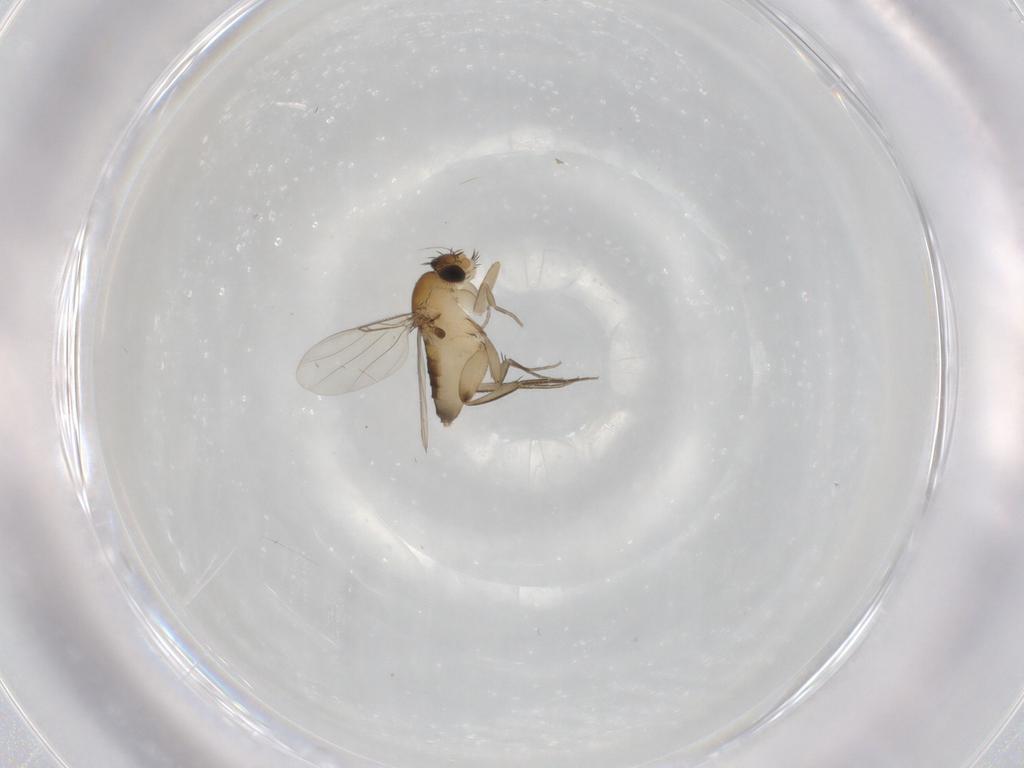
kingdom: Animalia
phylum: Arthropoda
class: Insecta
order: Diptera
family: Phoridae
